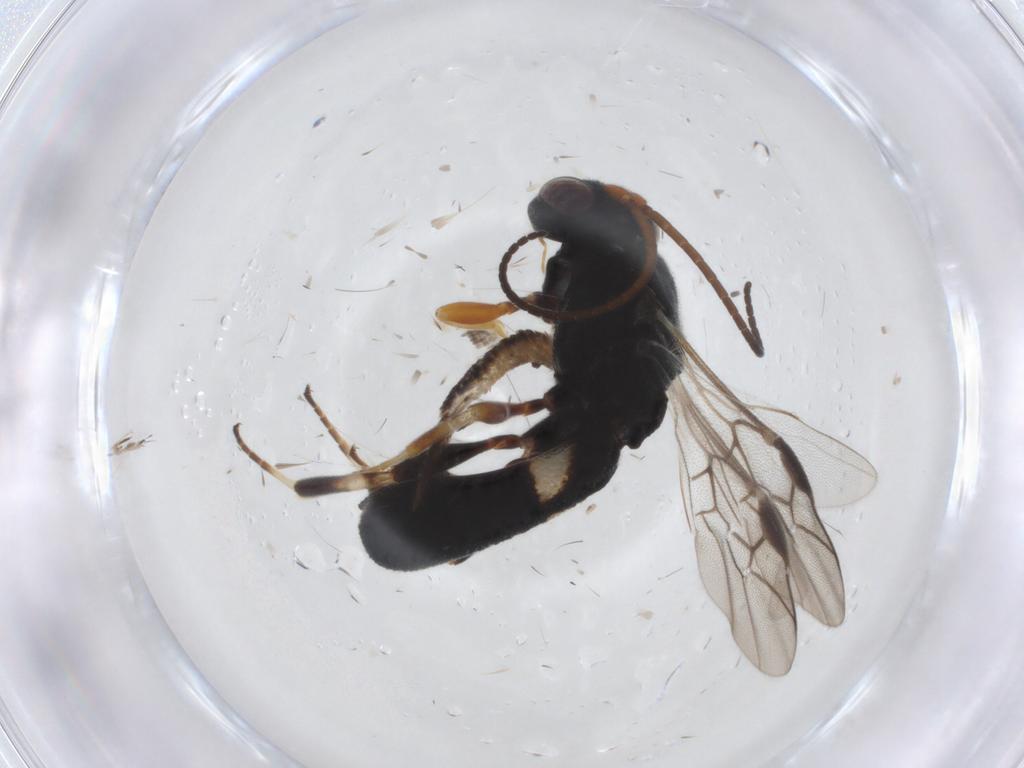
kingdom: Animalia
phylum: Arthropoda
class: Insecta
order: Hymenoptera
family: Braconidae
